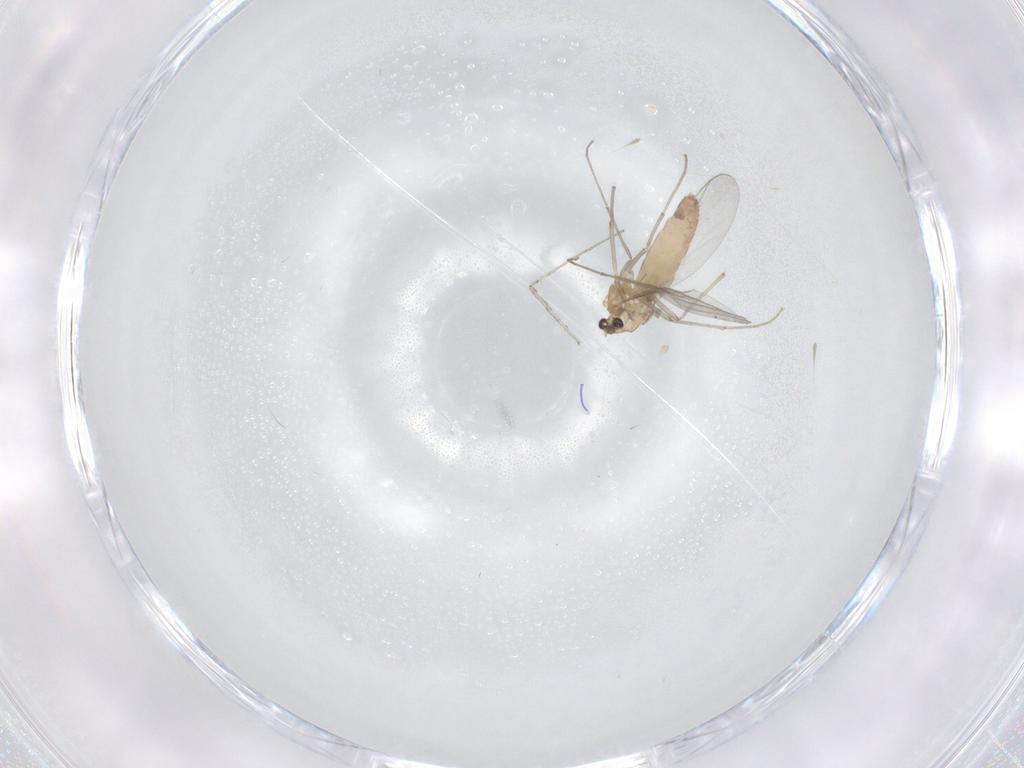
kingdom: Animalia
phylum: Arthropoda
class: Insecta
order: Diptera
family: Chironomidae
